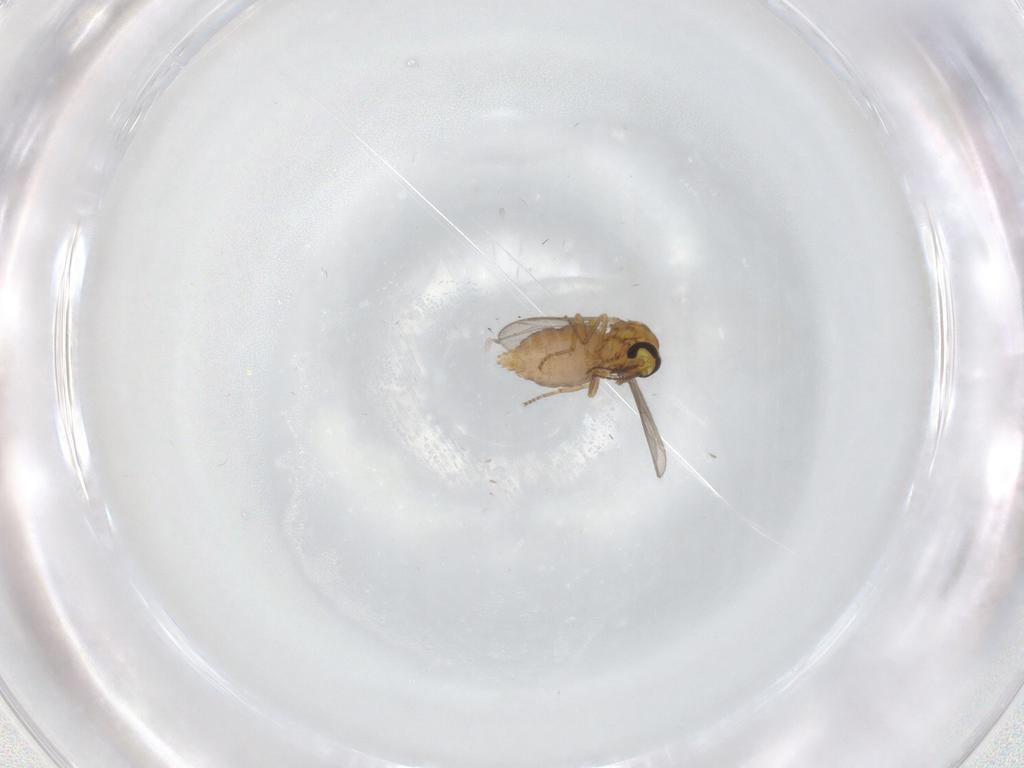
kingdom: Animalia
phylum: Arthropoda
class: Insecta
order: Diptera
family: Ceratopogonidae
